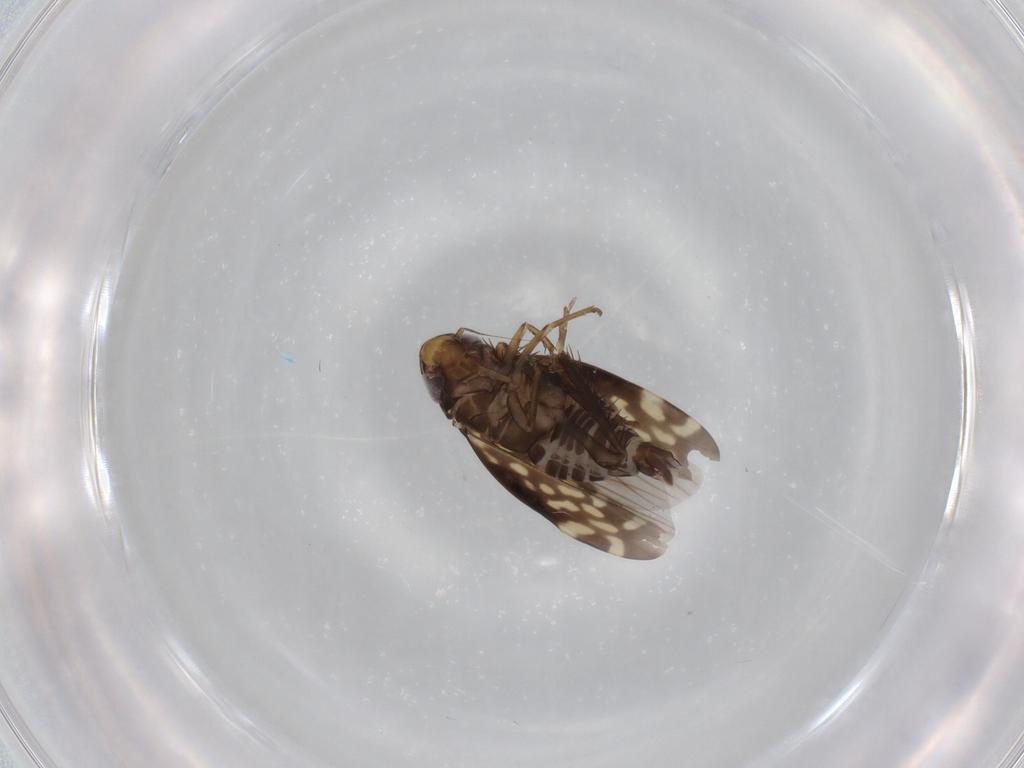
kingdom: Animalia
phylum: Arthropoda
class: Insecta
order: Hemiptera
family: Cicadellidae
